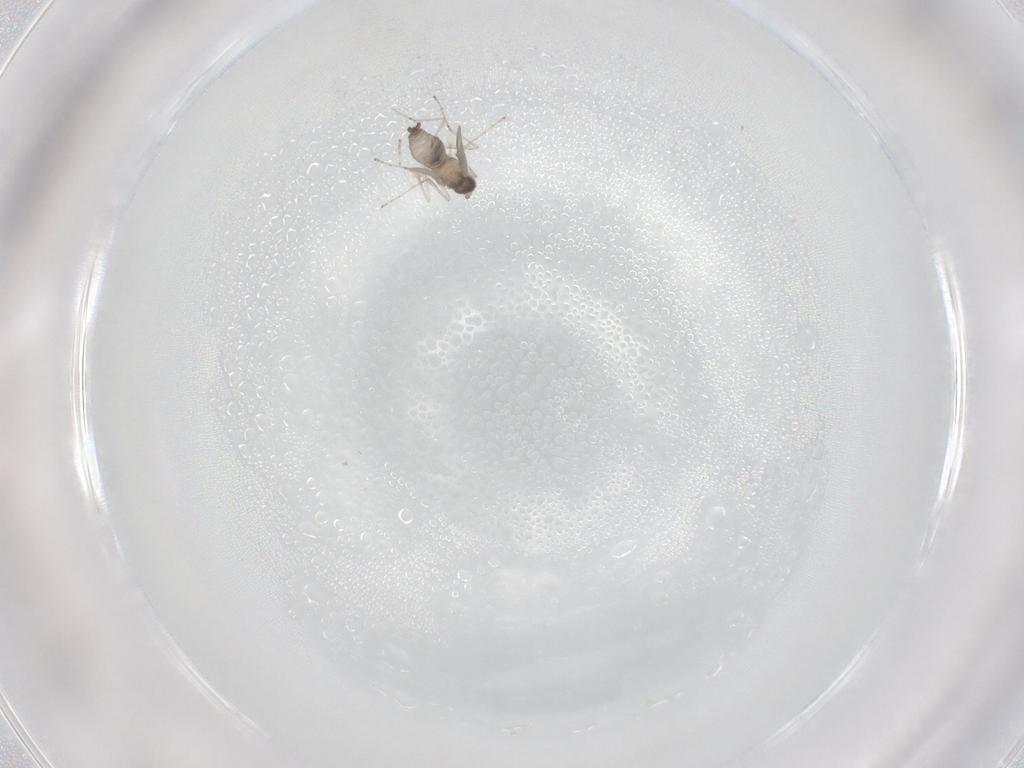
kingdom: Animalia
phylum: Arthropoda
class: Insecta
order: Diptera
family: Cecidomyiidae
